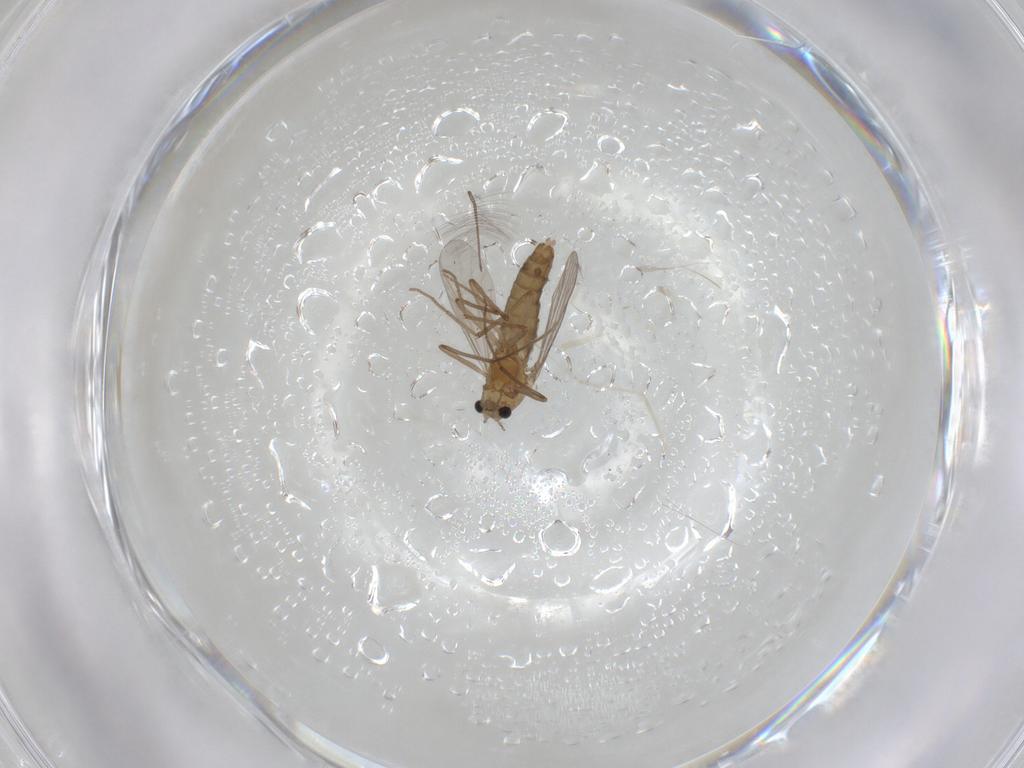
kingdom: Animalia
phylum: Arthropoda
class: Insecta
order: Diptera
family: Chironomidae
